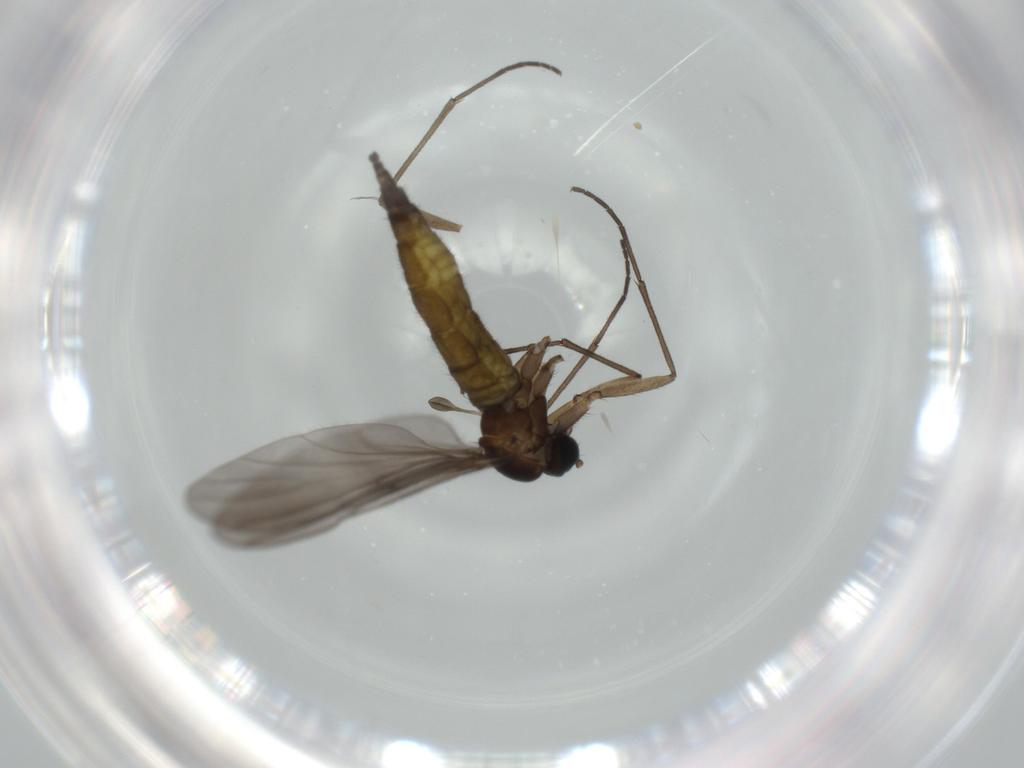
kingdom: Animalia
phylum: Arthropoda
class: Insecta
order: Diptera
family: Sciaridae
